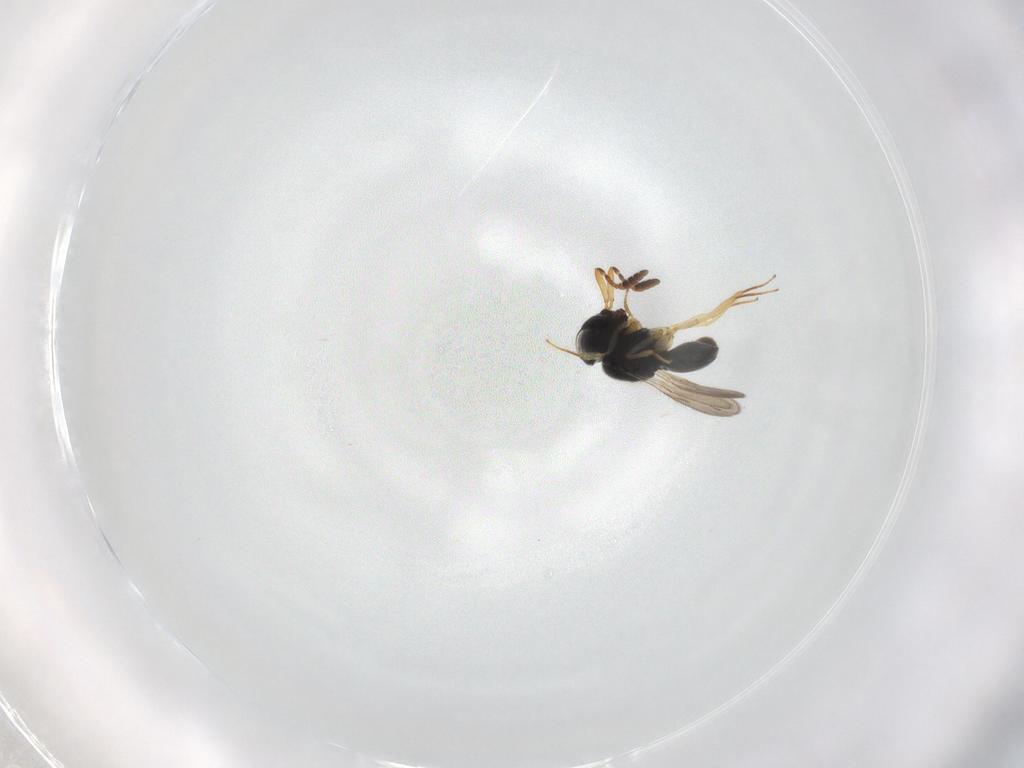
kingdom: Animalia
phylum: Arthropoda
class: Insecta
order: Hymenoptera
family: Scelionidae
